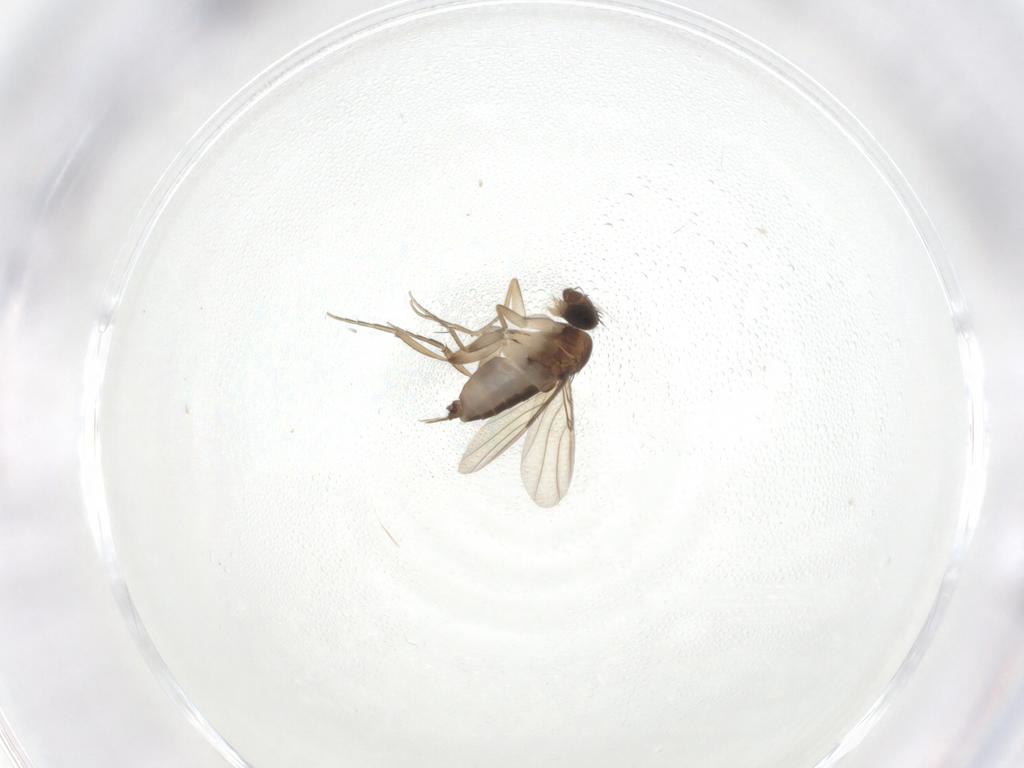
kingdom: Animalia
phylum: Arthropoda
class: Insecta
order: Diptera
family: Phoridae
